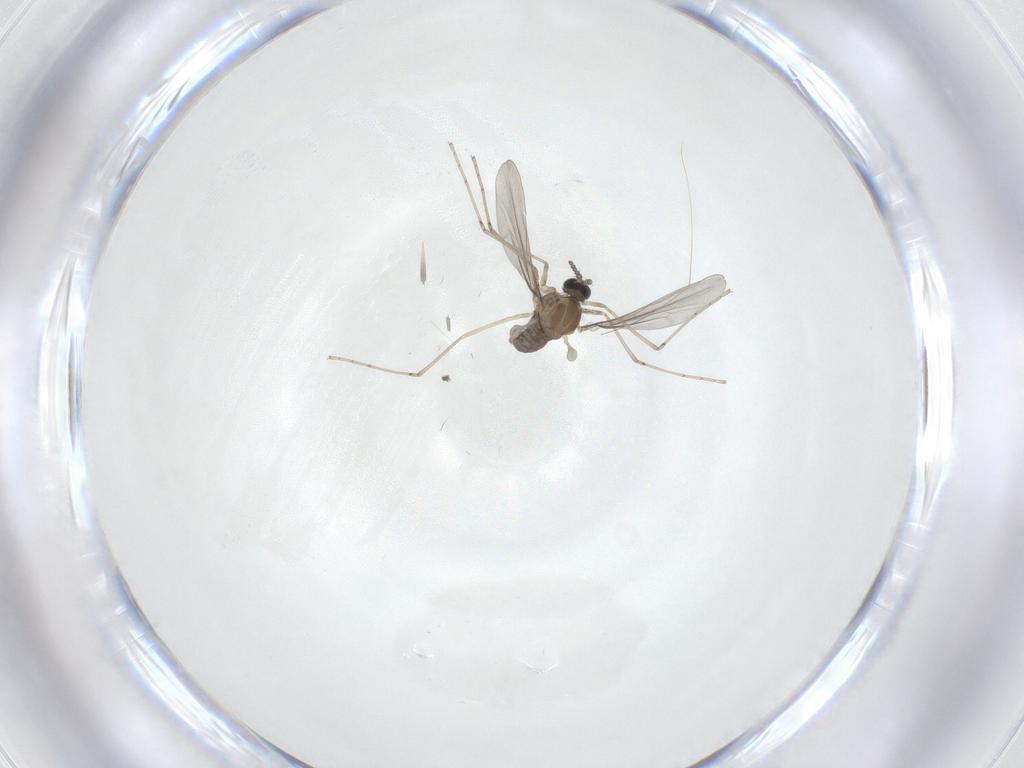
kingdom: Animalia
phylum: Arthropoda
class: Insecta
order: Diptera
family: Cecidomyiidae
